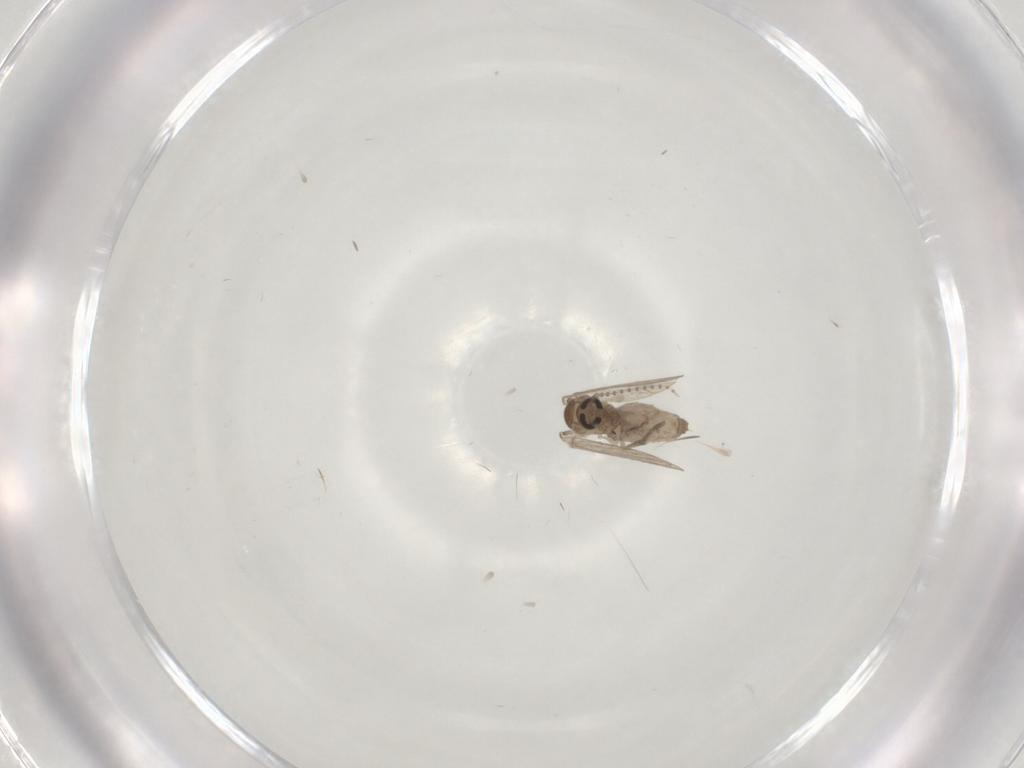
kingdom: Animalia
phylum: Arthropoda
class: Insecta
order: Diptera
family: Psychodidae
